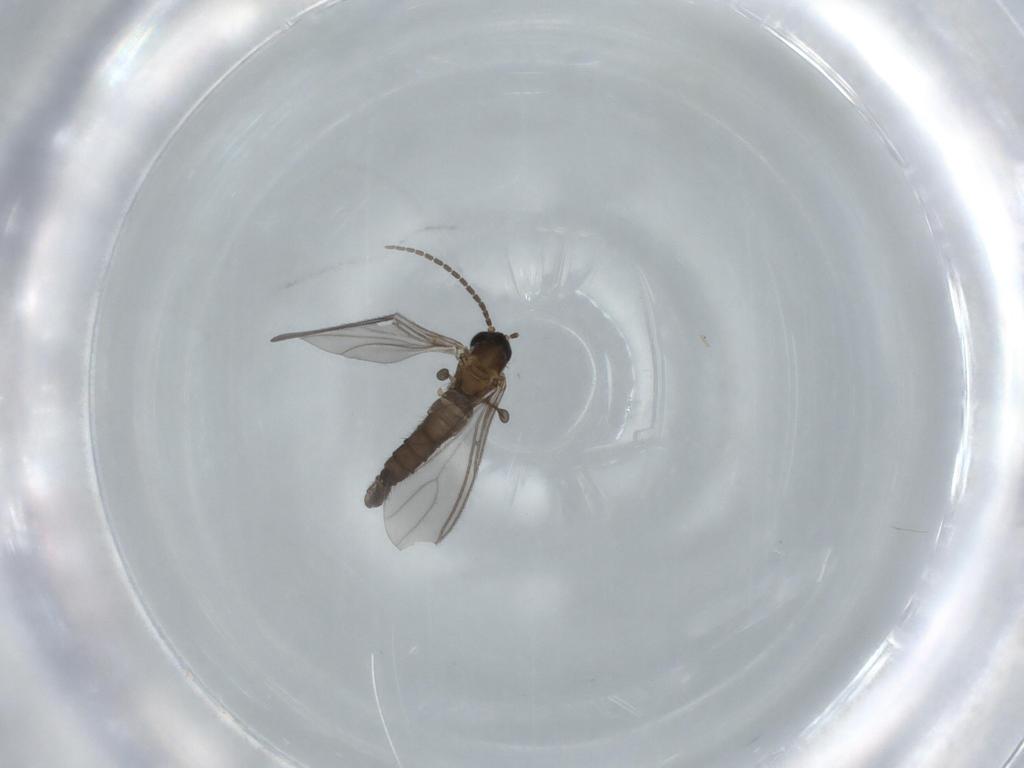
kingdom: Animalia
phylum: Arthropoda
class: Insecta
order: Diptera
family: Sciaridae
